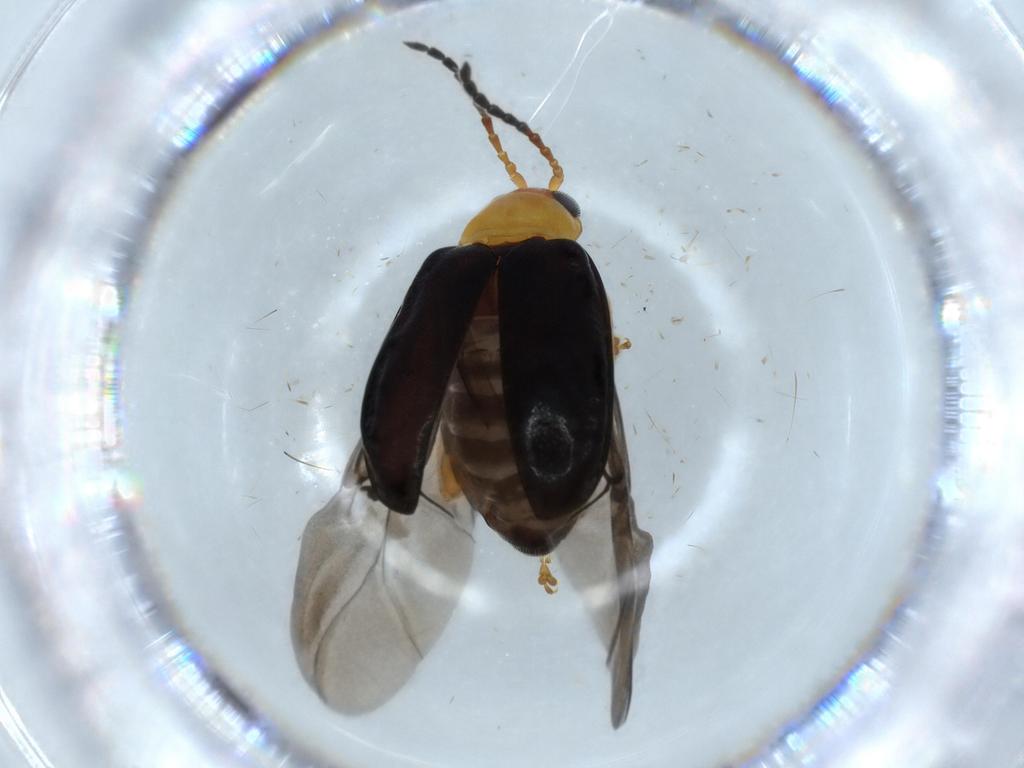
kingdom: Animalia
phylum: Arthropoda
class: Insecta
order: Coleoptera
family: Chrysomelidae
